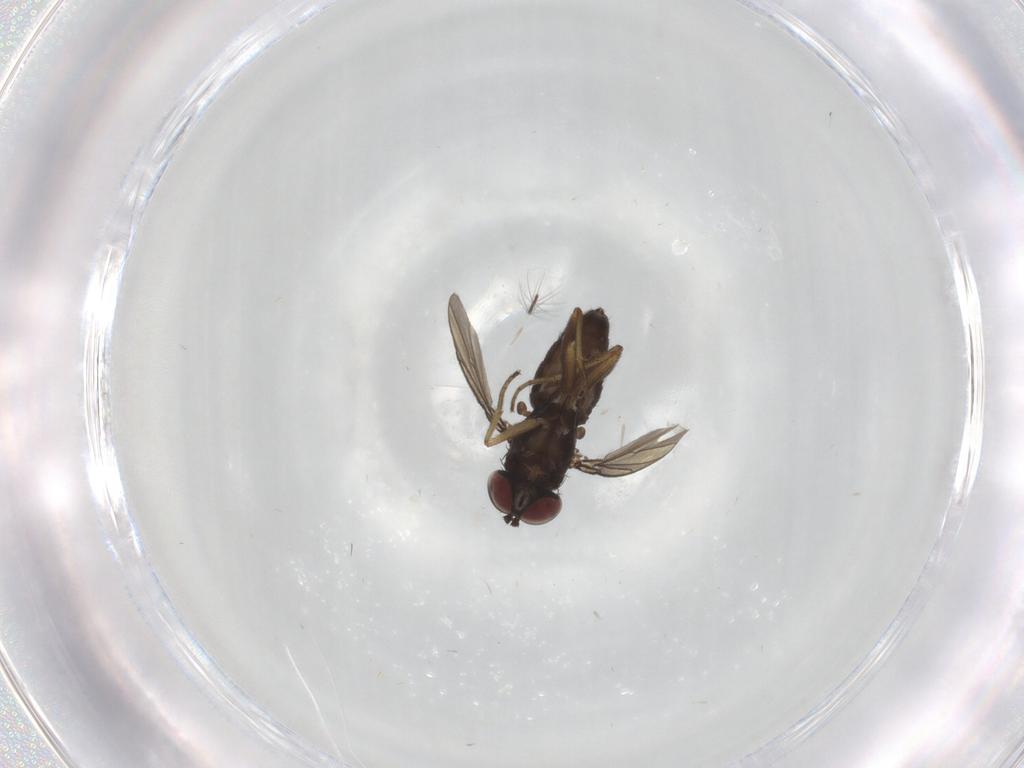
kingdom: Animalia
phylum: Arthropoda
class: Insecta
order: Diptera
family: Dolichopodidae
